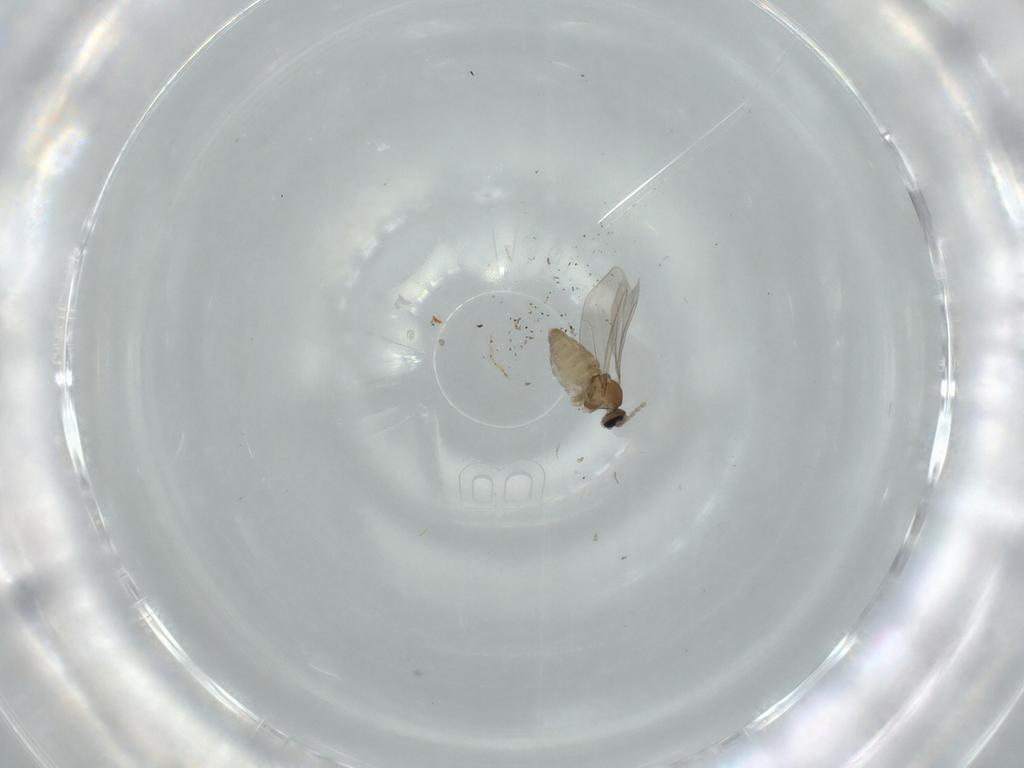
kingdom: Animalia
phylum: Arthropoda
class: Insecta
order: Diptera
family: Cecidomyiidae
